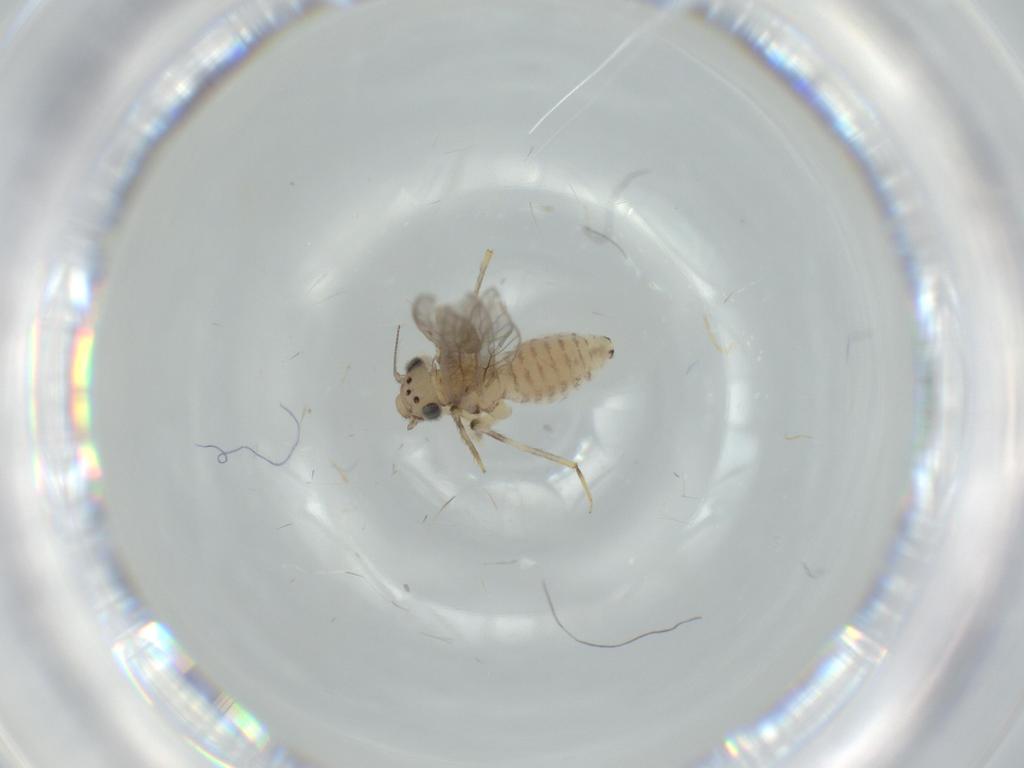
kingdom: Animalia
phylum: Arthropoda
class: Insecta
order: Psocodea
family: Lepidopsocidae
